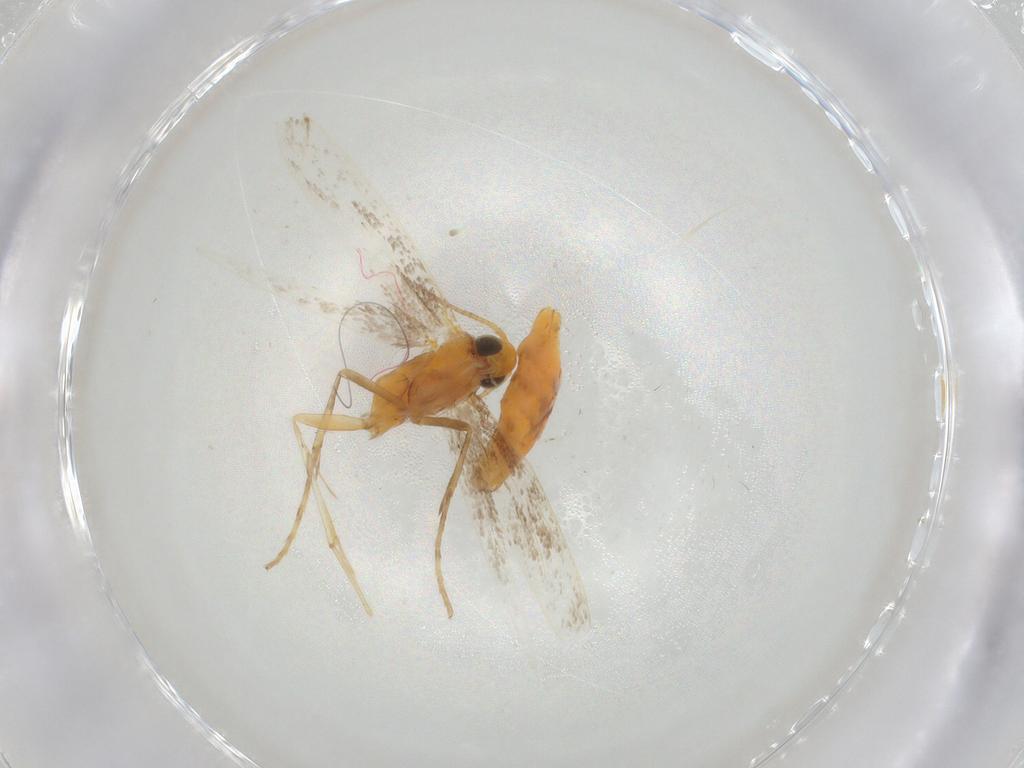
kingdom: Animalia
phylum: Arthropoda
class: Insecta
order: Lepidoptera
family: Gracillariidae
